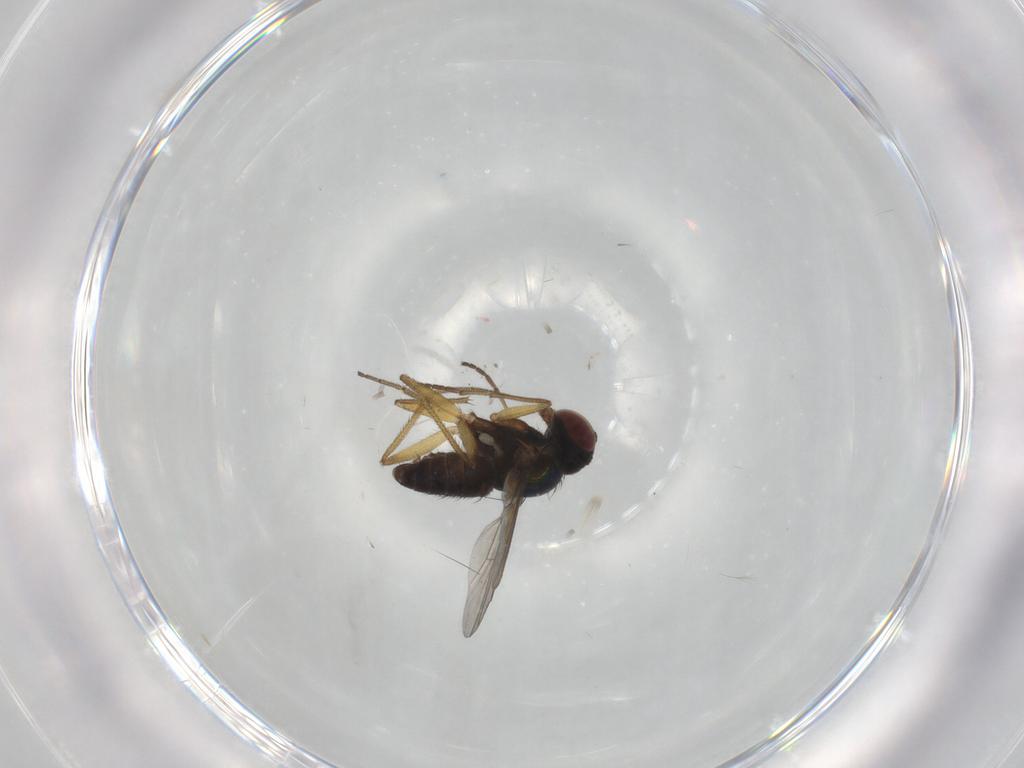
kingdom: Animalia
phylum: Arthropoda
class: Insecta
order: Diptera
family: Dolichopodidae
